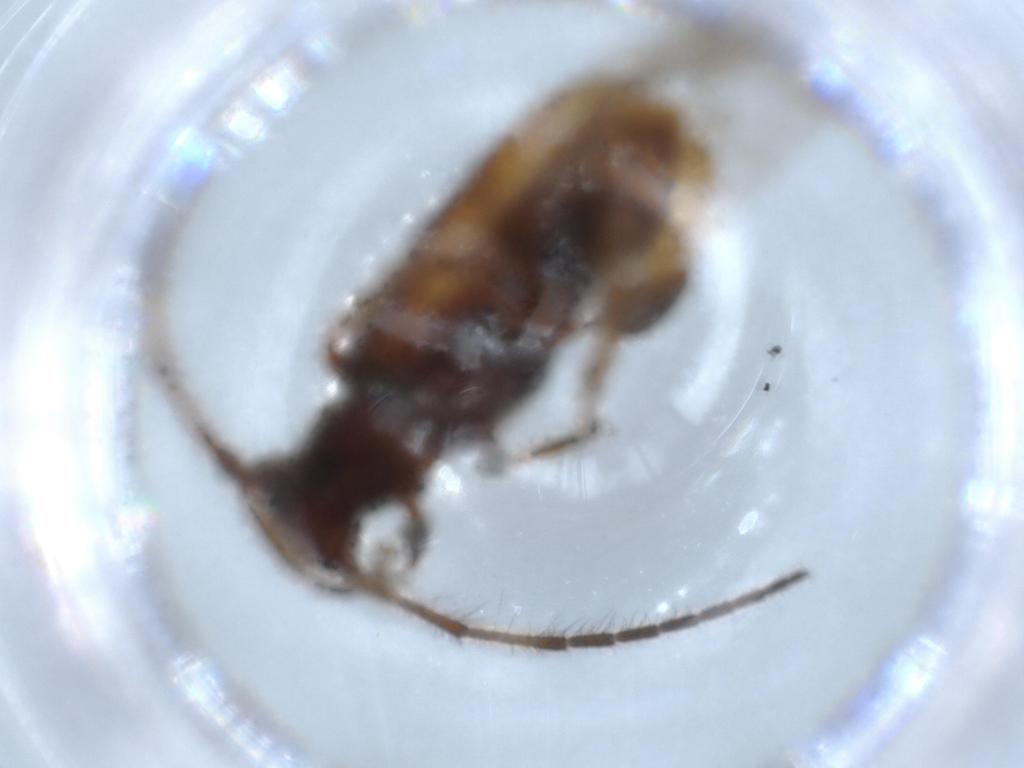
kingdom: Animalia
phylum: Arthropoda
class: Insecta
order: Coleoptera
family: Cerambycidae
